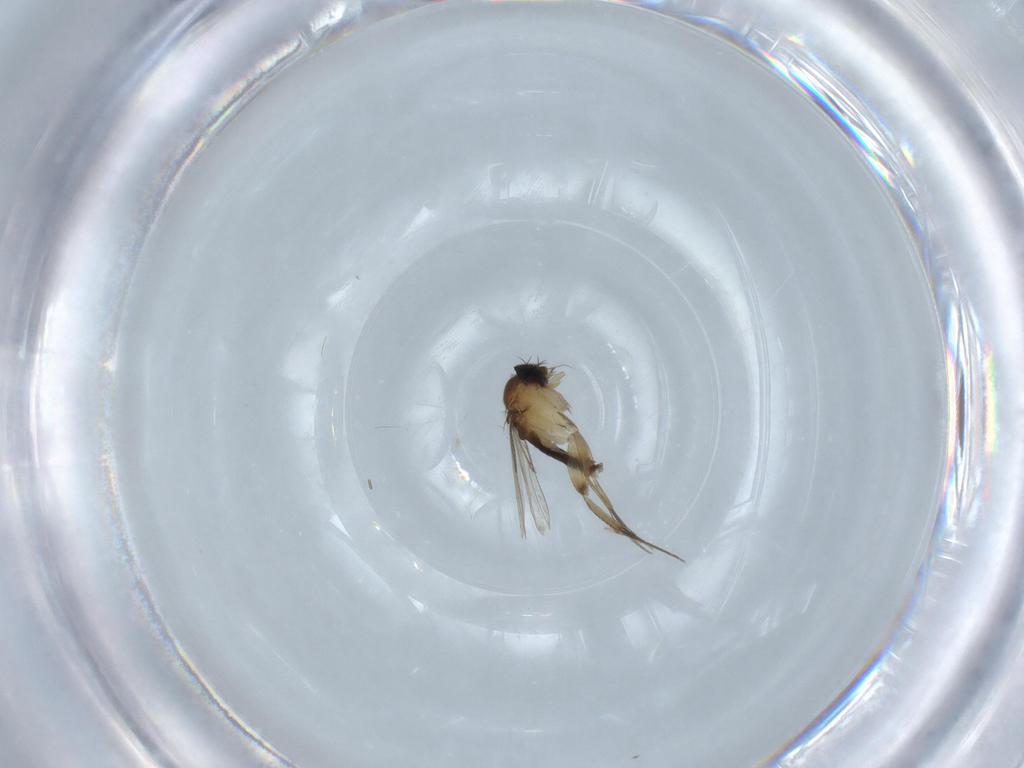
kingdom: Animalia
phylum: Arthropoda
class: Insecta
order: Diptera
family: Phoridae
